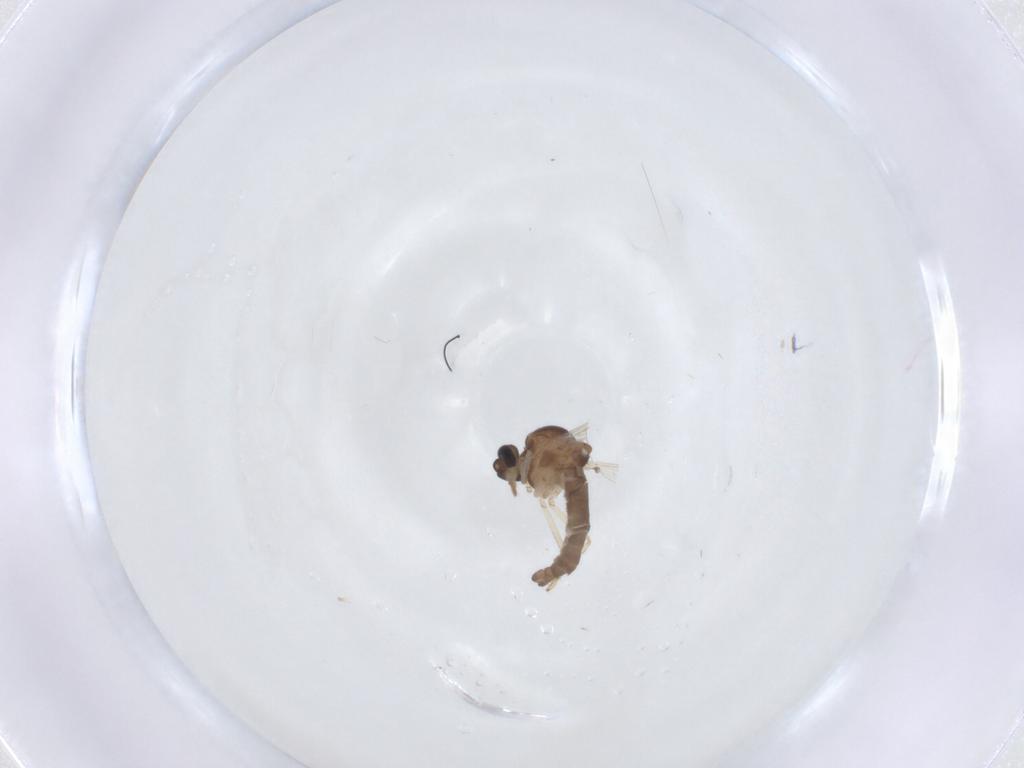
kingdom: Animalia
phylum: Arthropoda
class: Insecta
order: Diptera
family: Ceratopogonidae
